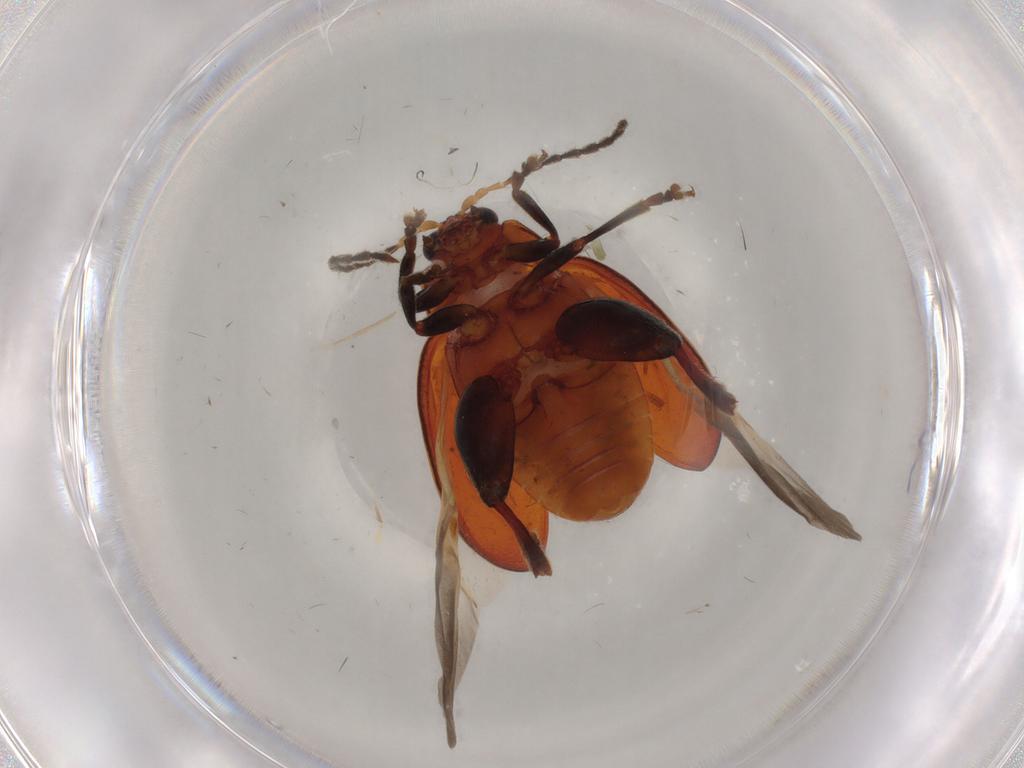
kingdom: Animalia
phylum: Arthropoda
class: Insecta
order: Coleoptera
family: Chrysomelidae
